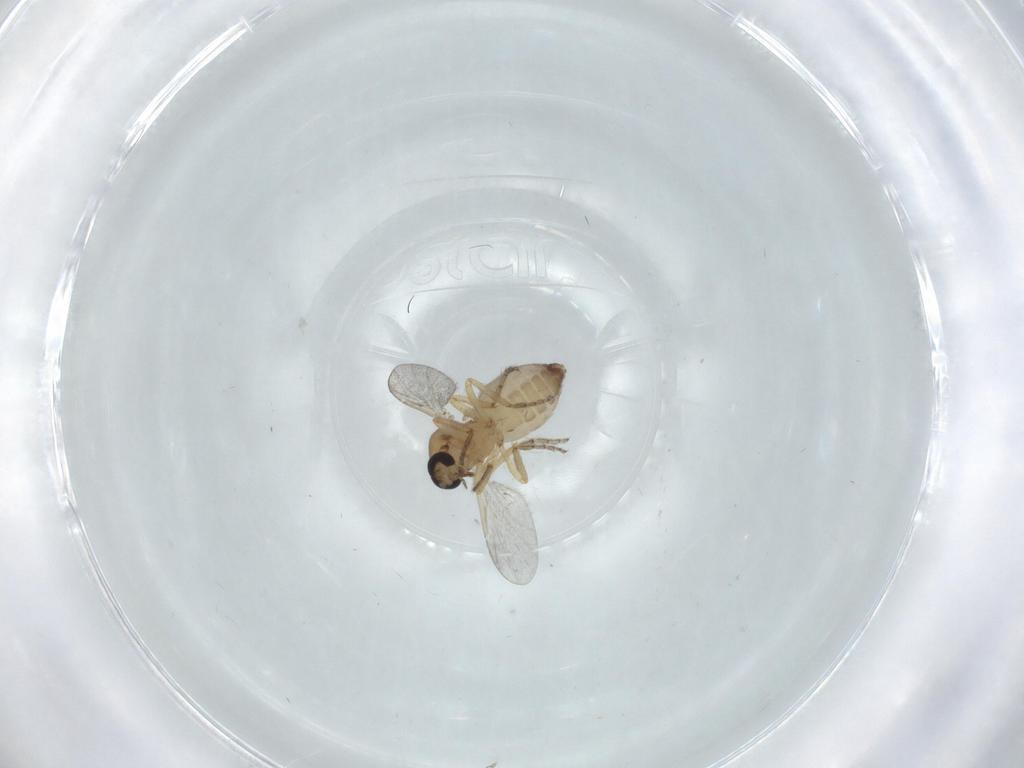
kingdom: Animalia
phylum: Arthropoda
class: Insecta
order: Diptera
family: Ceratopogonidae
